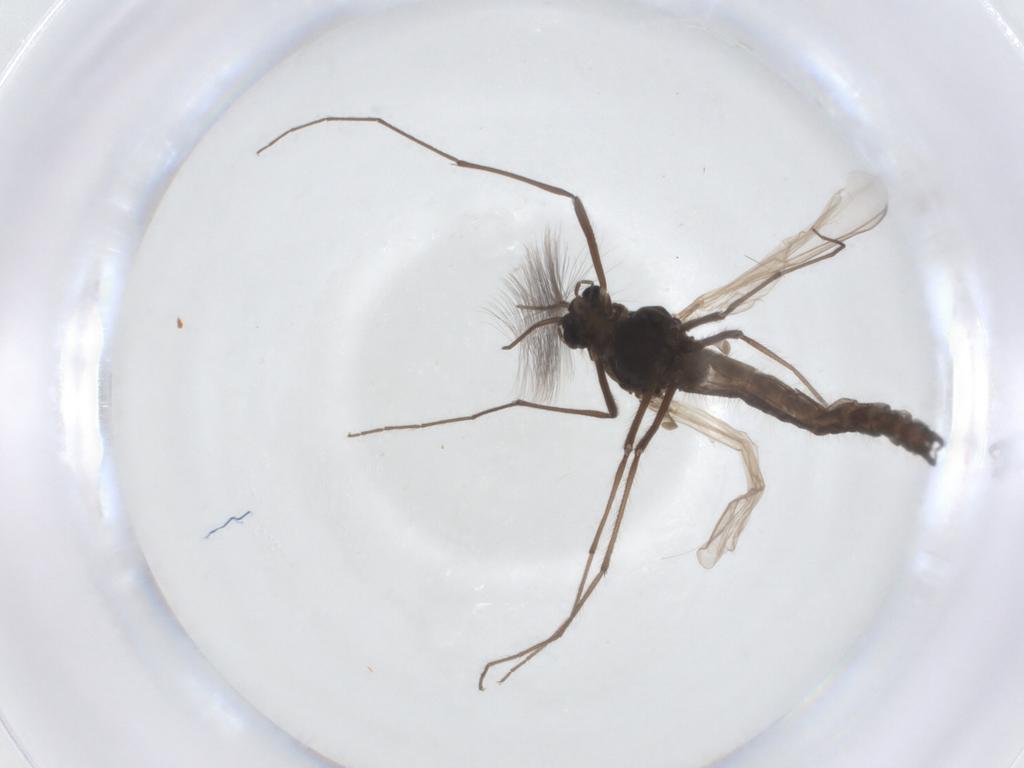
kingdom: Animalia
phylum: Arthropoda
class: Insecta
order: Diptera
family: Chironomidae
